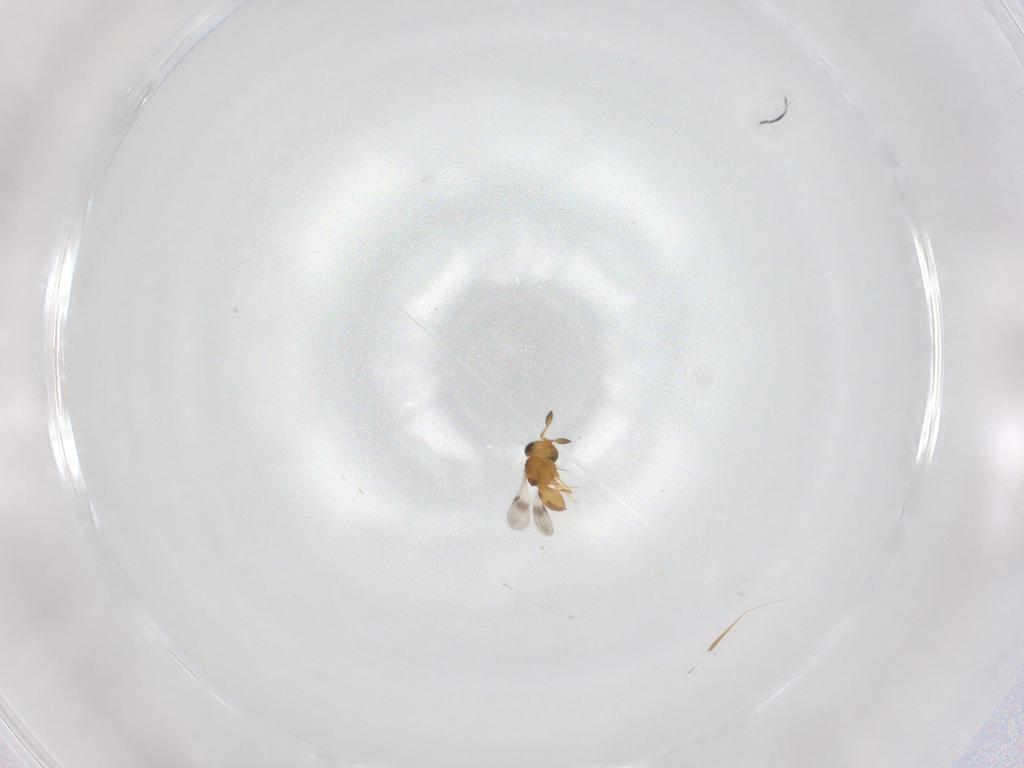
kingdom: Animalia
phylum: Arthropoda
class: Insecta
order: Hymenoptera
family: Scelionidae
